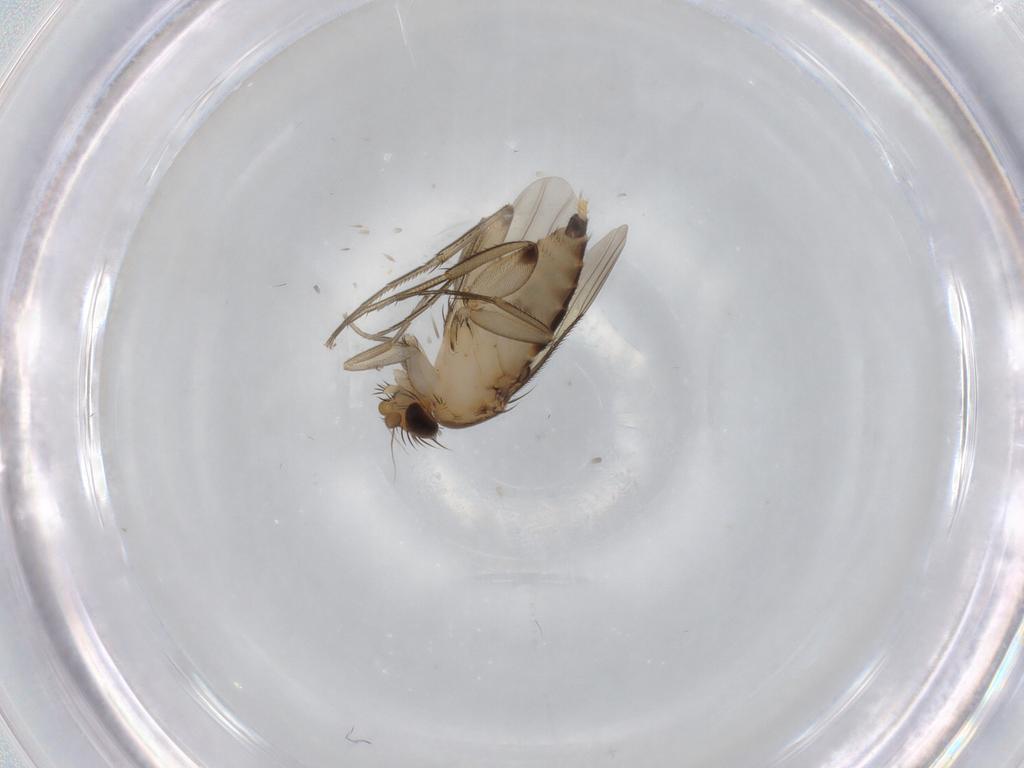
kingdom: Animalia
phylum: Arthropoda
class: Insecta
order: Diptera
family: Phoridae
